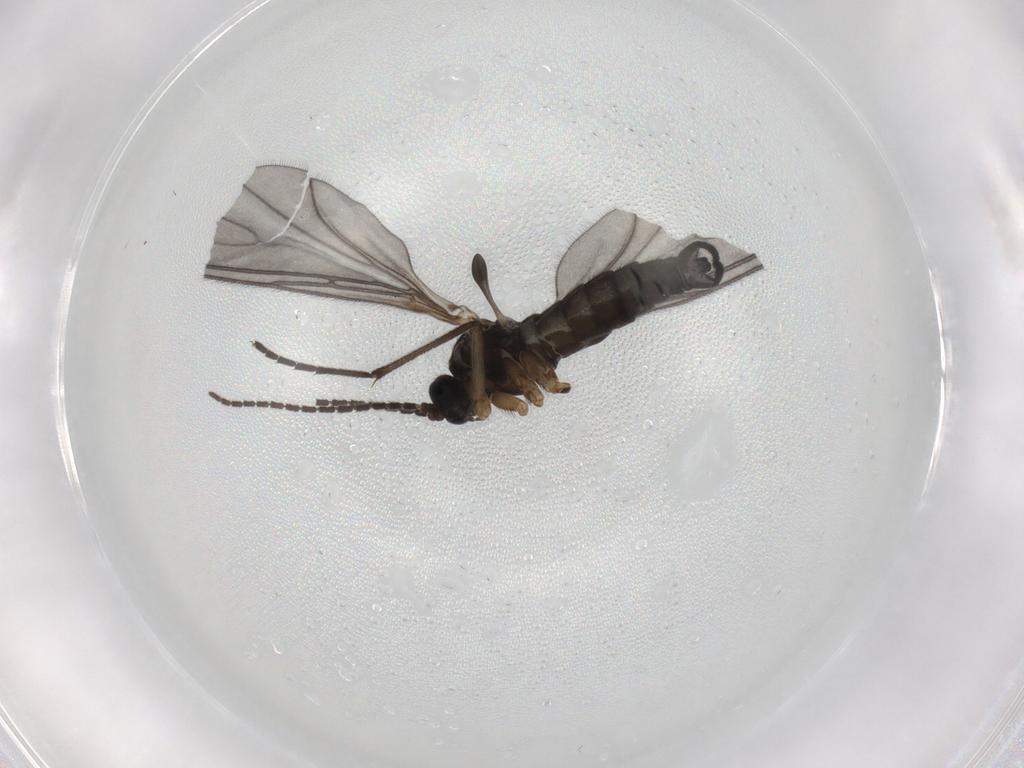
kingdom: Animalia
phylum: Arthropoda
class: Insecta
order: Diptera
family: Sciaridae
